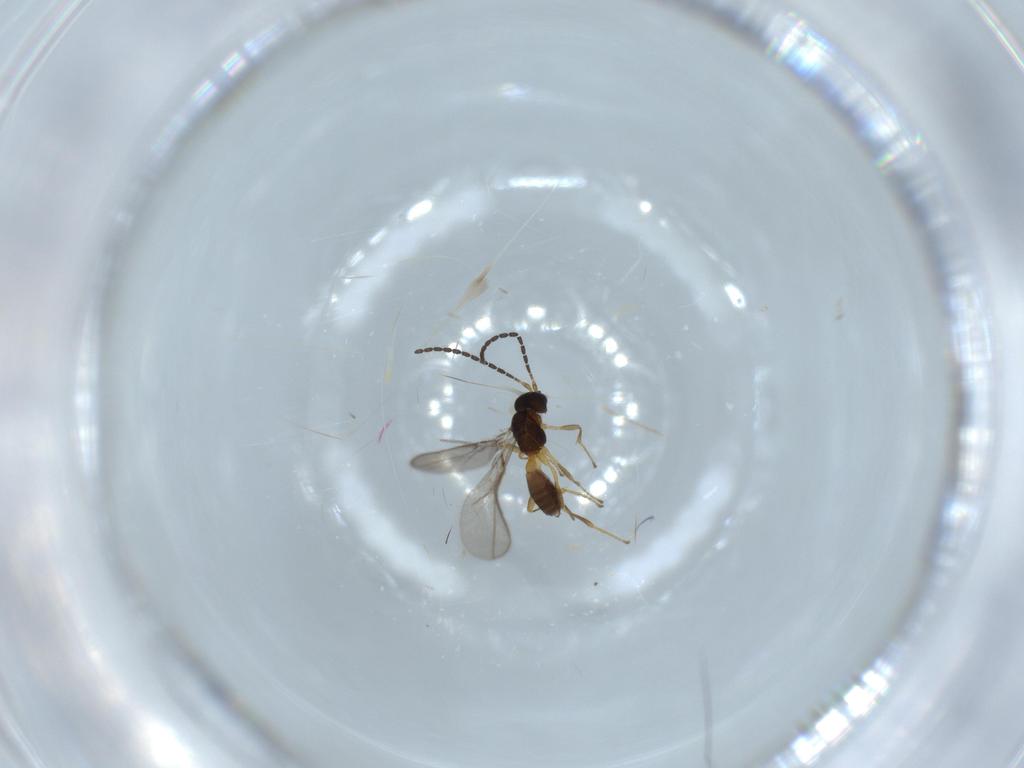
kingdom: Animalia
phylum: Arthropoda
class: Insecta
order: Hymenoptera
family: Braconidae
